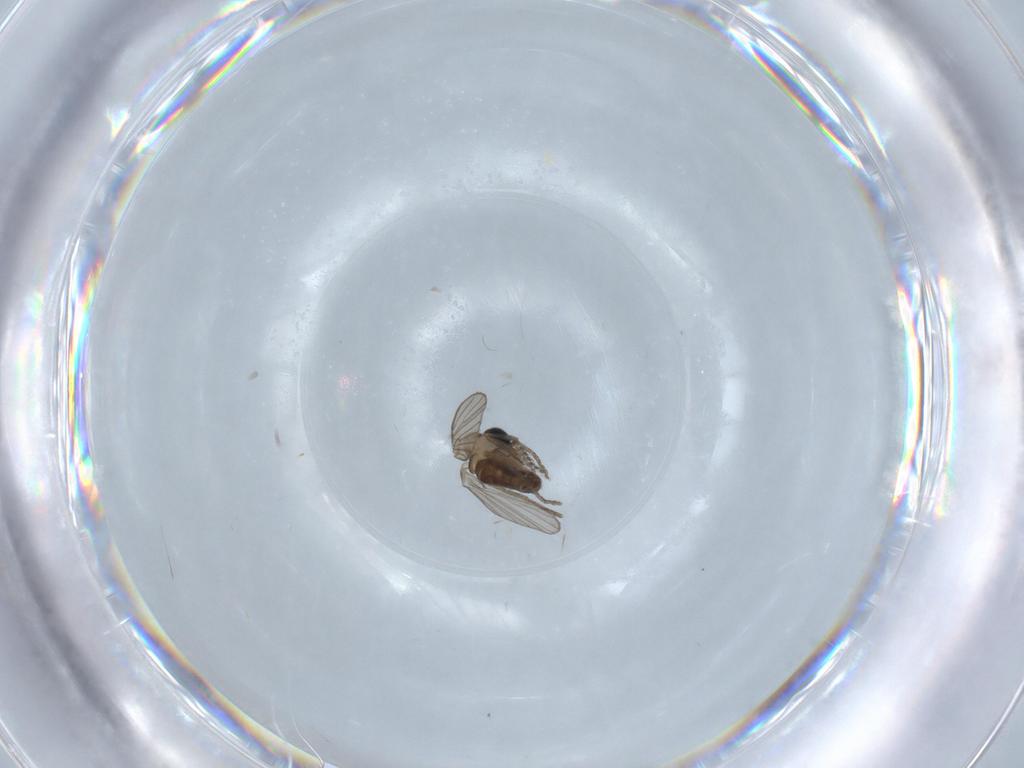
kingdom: Animalia
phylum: Arthropoda
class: Insecta
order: Diptera
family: Psychodidae
